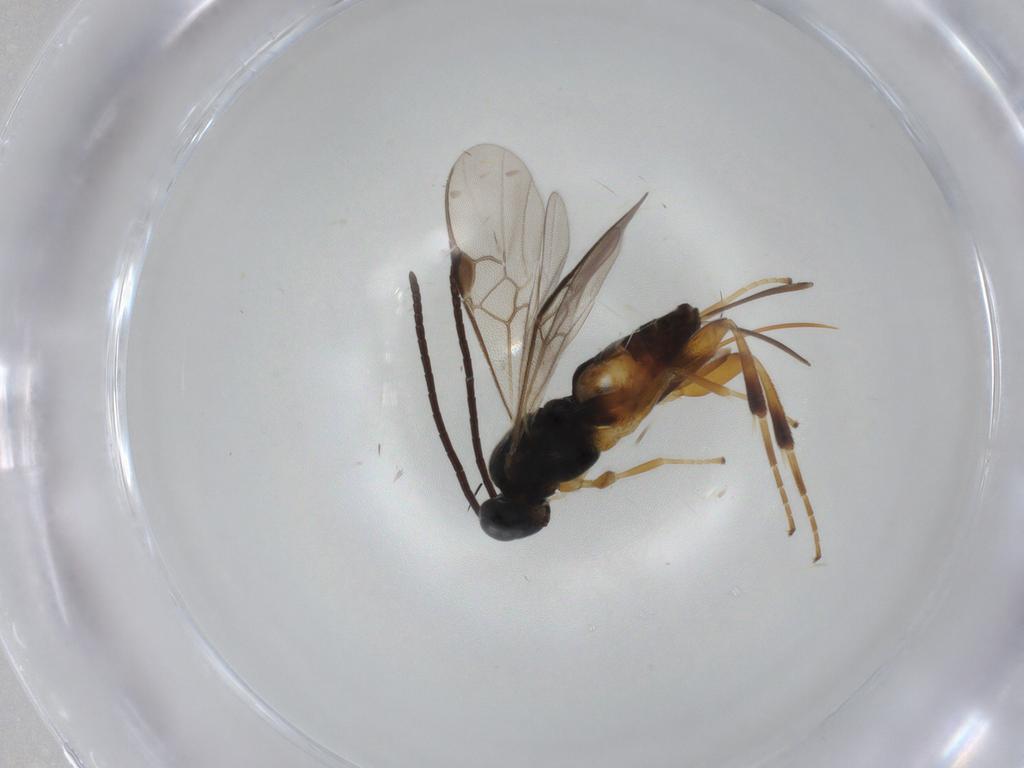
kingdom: Animalia
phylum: Arthropoda
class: Insecta
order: Hymenoptera
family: Braconidae
